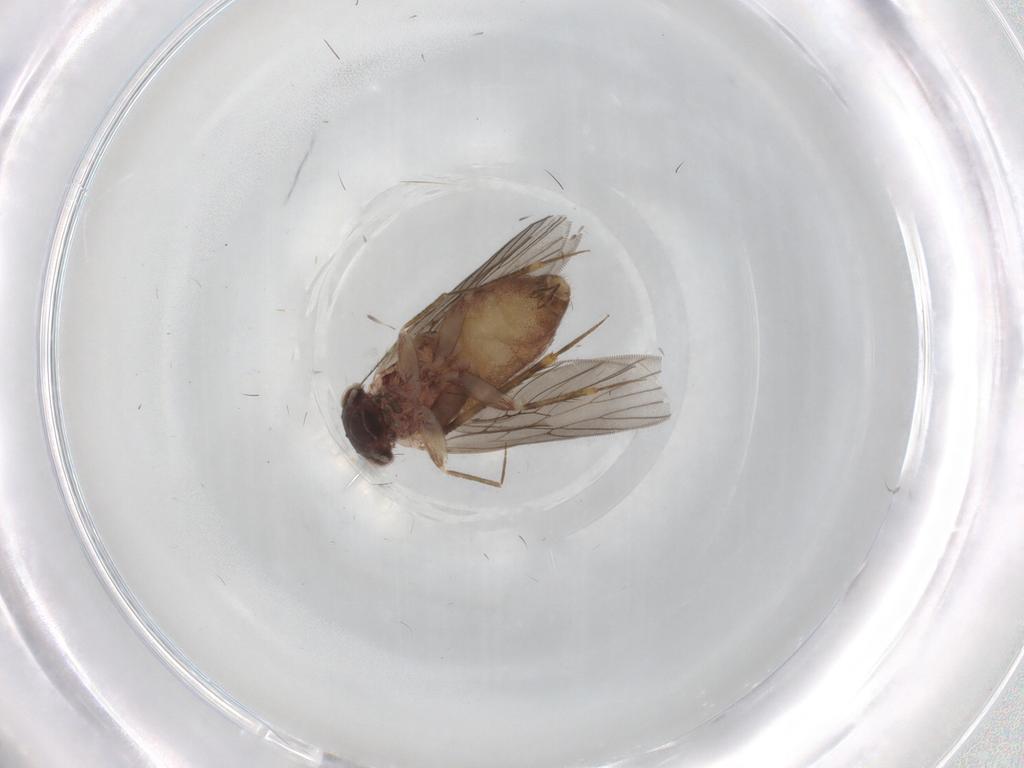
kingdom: Animalia
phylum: Arthropoda
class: Insecta
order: Psocodea
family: Lepidopsocidae
